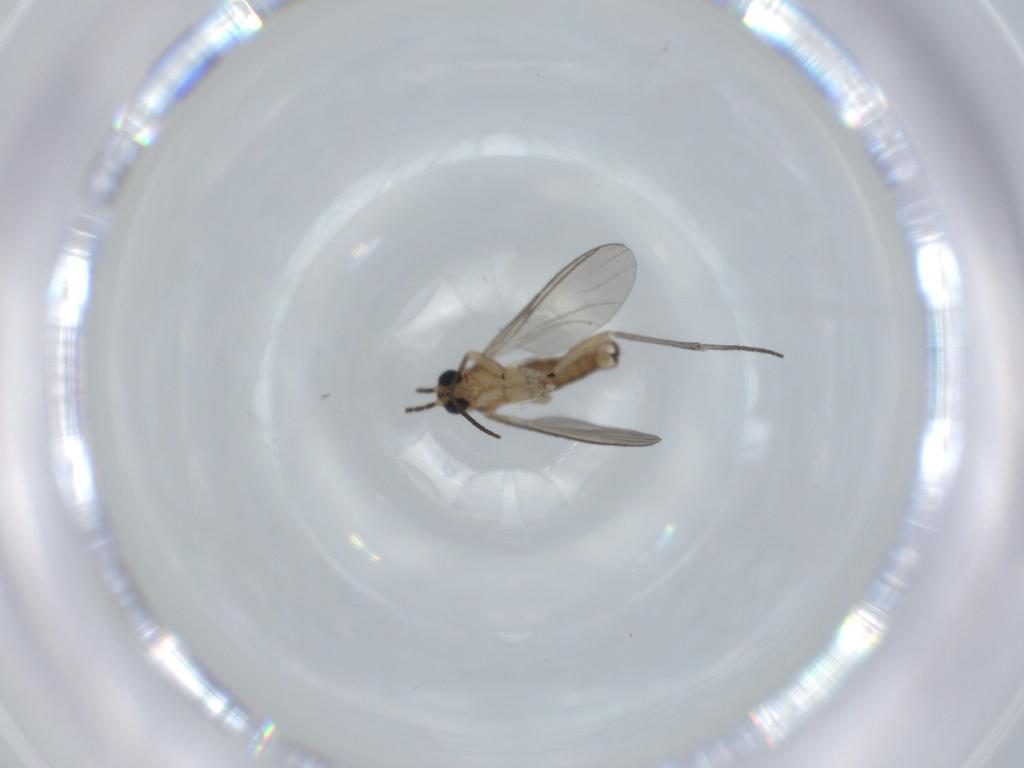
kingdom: Animalia
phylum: Arthropoda
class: Insecta
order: Diptera
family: Sciaridae
